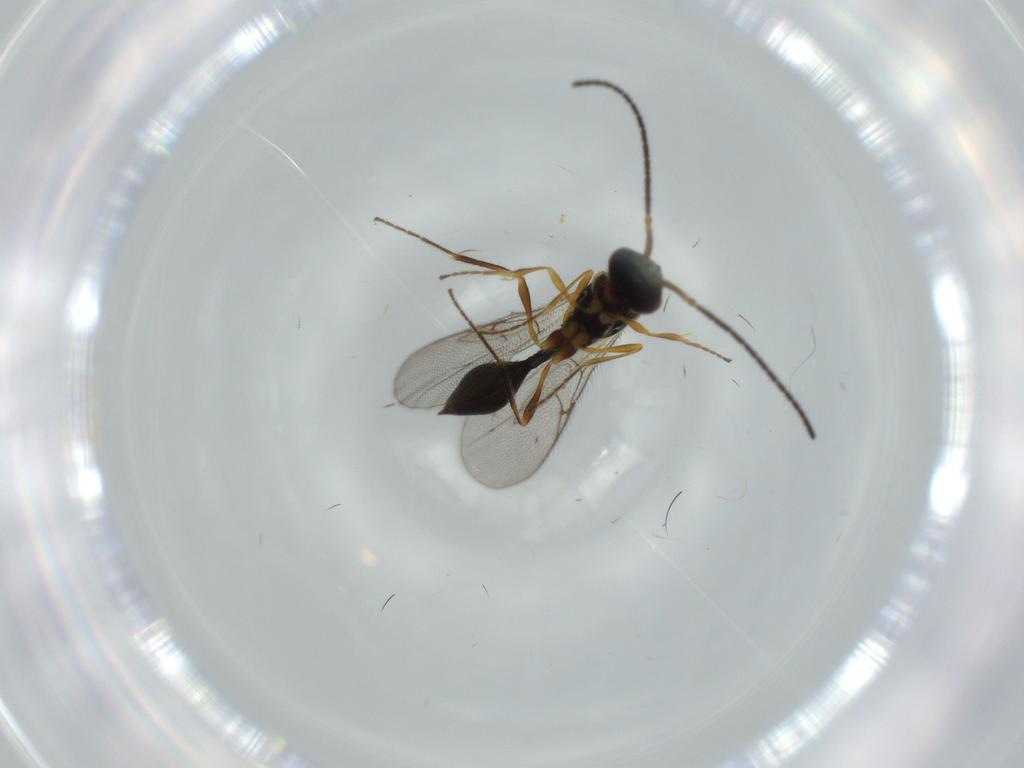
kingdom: Animalia
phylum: Arthropoda
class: Insecta
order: Hymenoptera
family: Diapriidae
